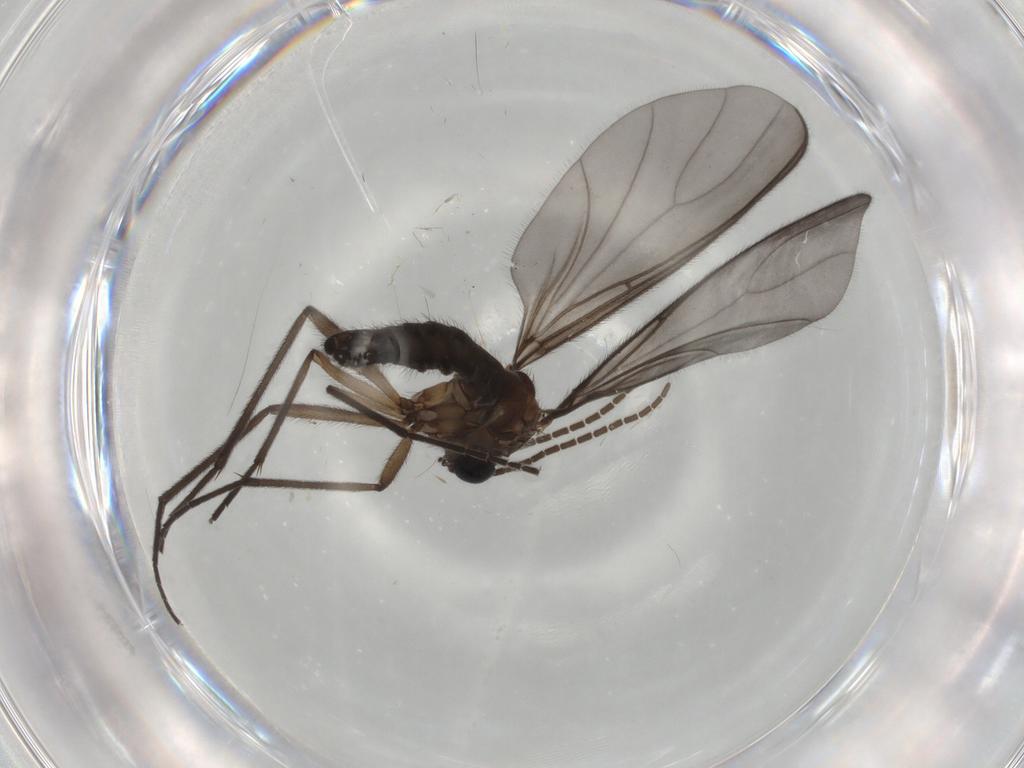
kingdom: Animalia
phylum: Arthropoda
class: Insecta
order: Diptera
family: Sciaridae
